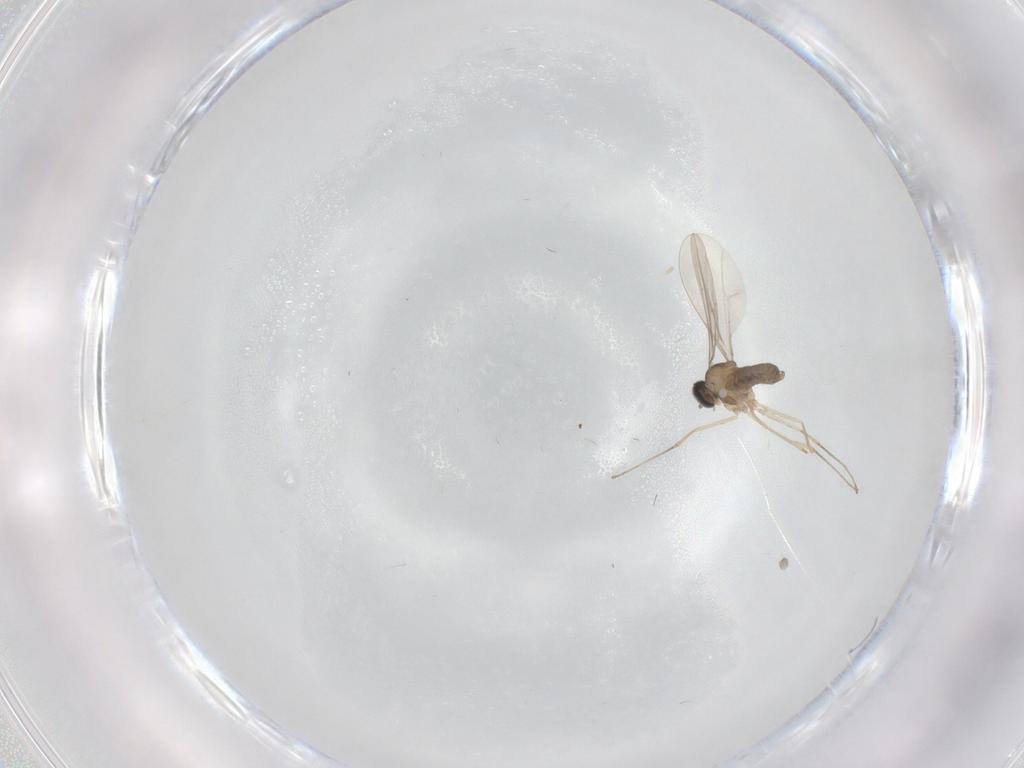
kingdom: Animalia
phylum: Arthropoda
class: Insecta
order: Diptera
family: Cecidomyiidae
